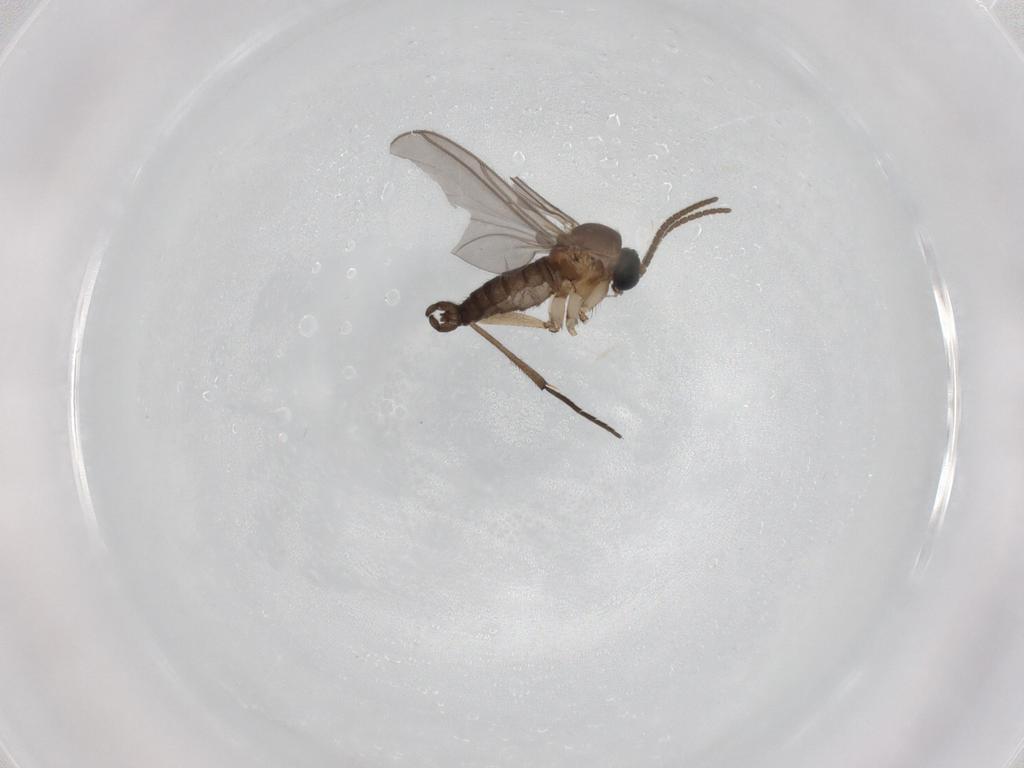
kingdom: Animalia
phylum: Arthropoda
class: Insecta
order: Diptera
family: Sciaridae
